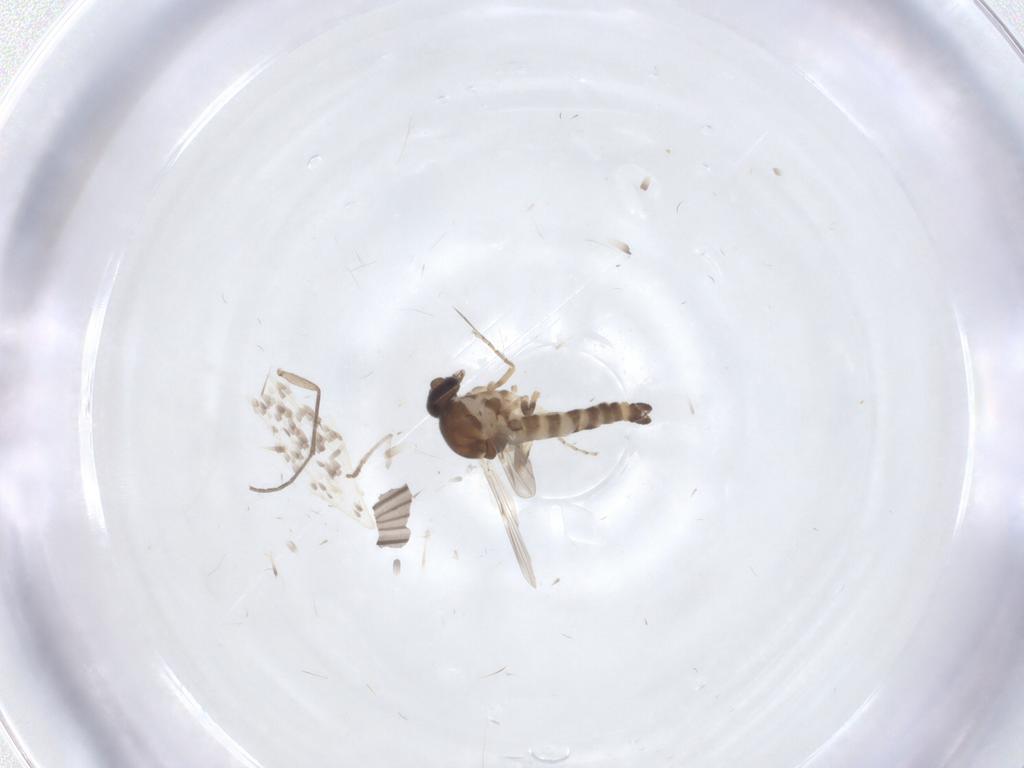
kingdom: Animalia
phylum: Arthropoda
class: Insecta
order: Diptera
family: Ceratopogonidae
